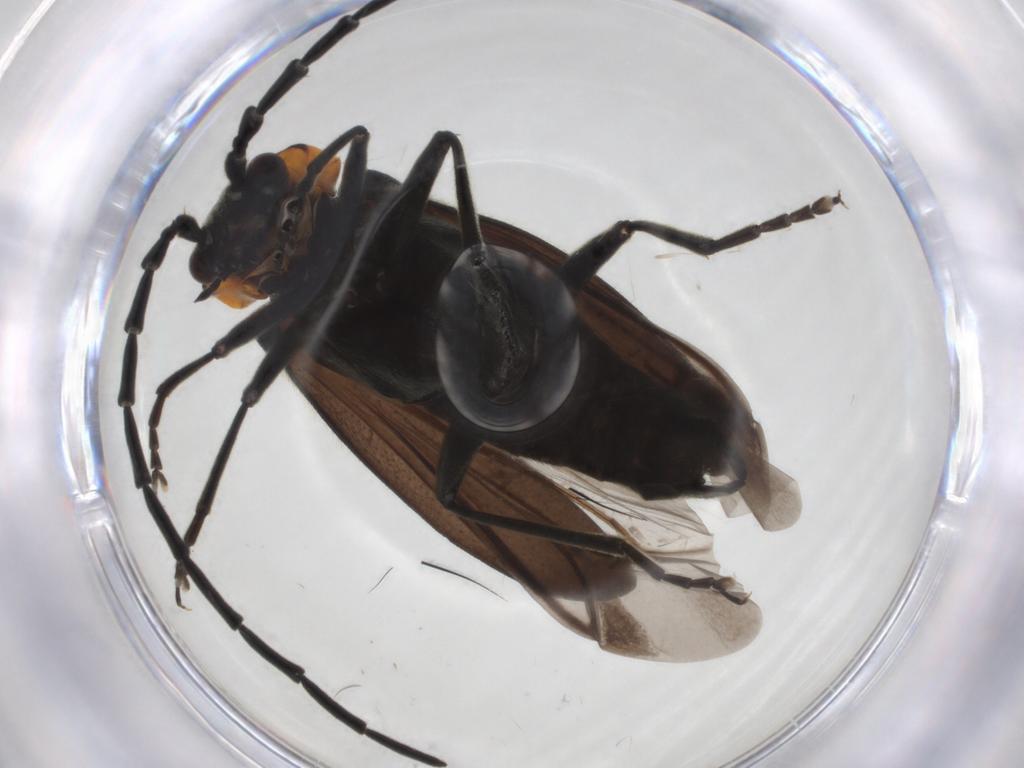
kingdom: Animalia
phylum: Arthropoda
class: Insecta
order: Coleoptera
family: Cantharidae
